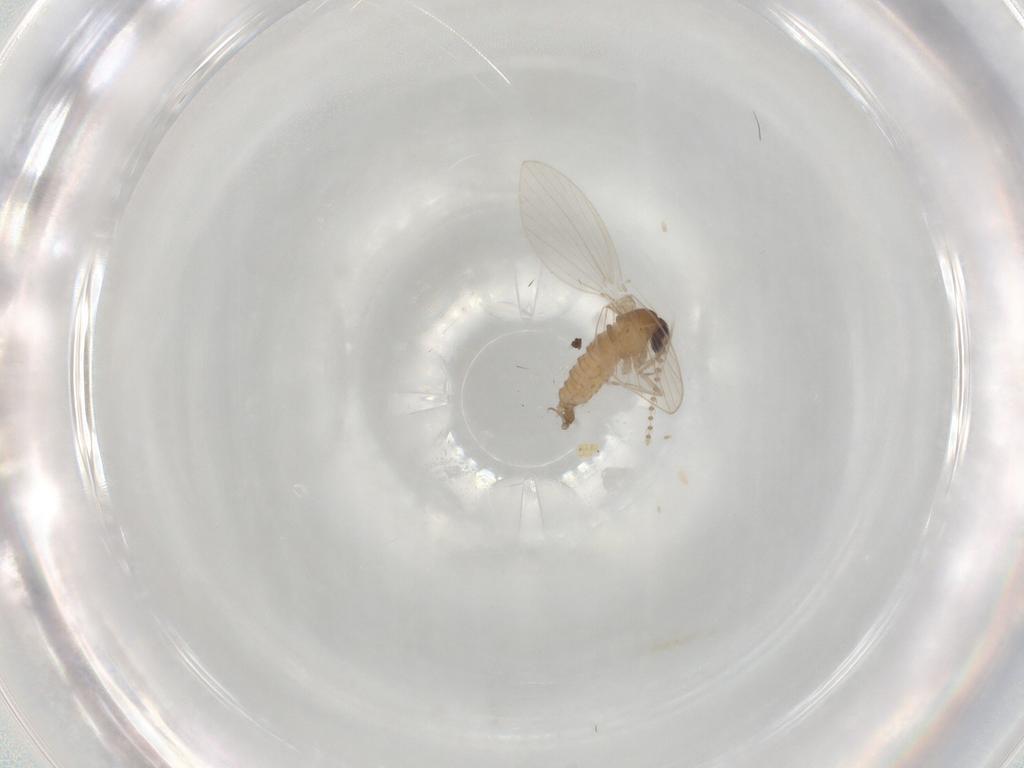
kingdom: Animalia
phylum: Arthropoda
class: Insecta
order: Diptera
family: Psychodidae
